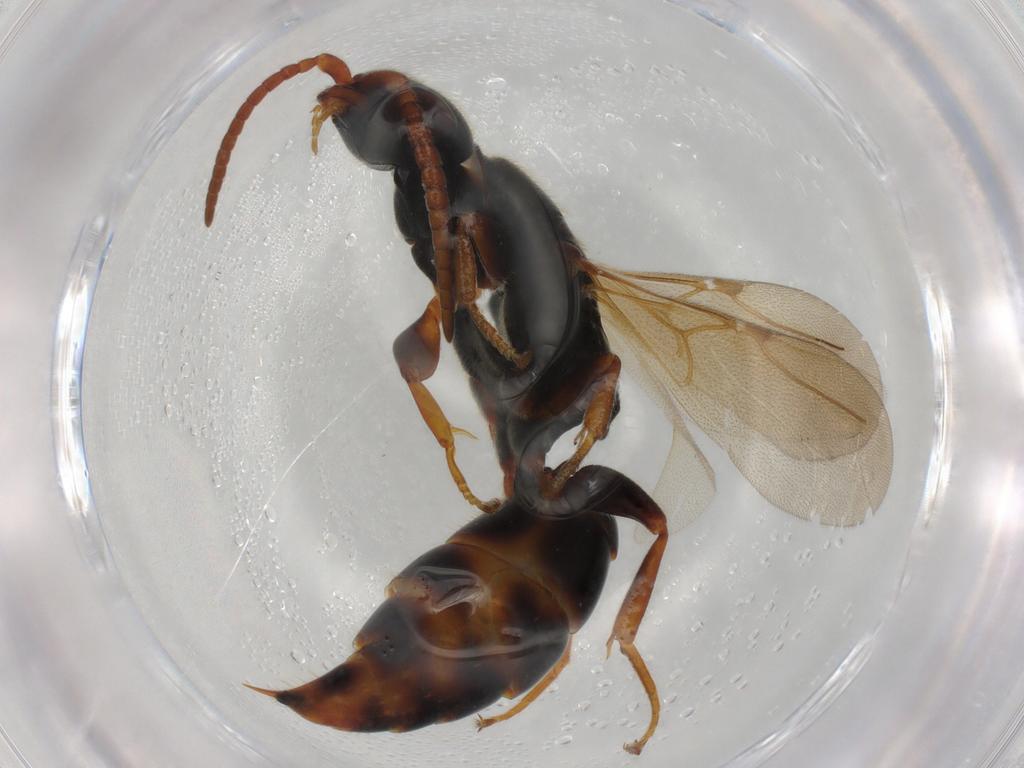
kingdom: Animalia
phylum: Arthropoda
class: Insecta
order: Hymenoptera
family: Bethylidae
